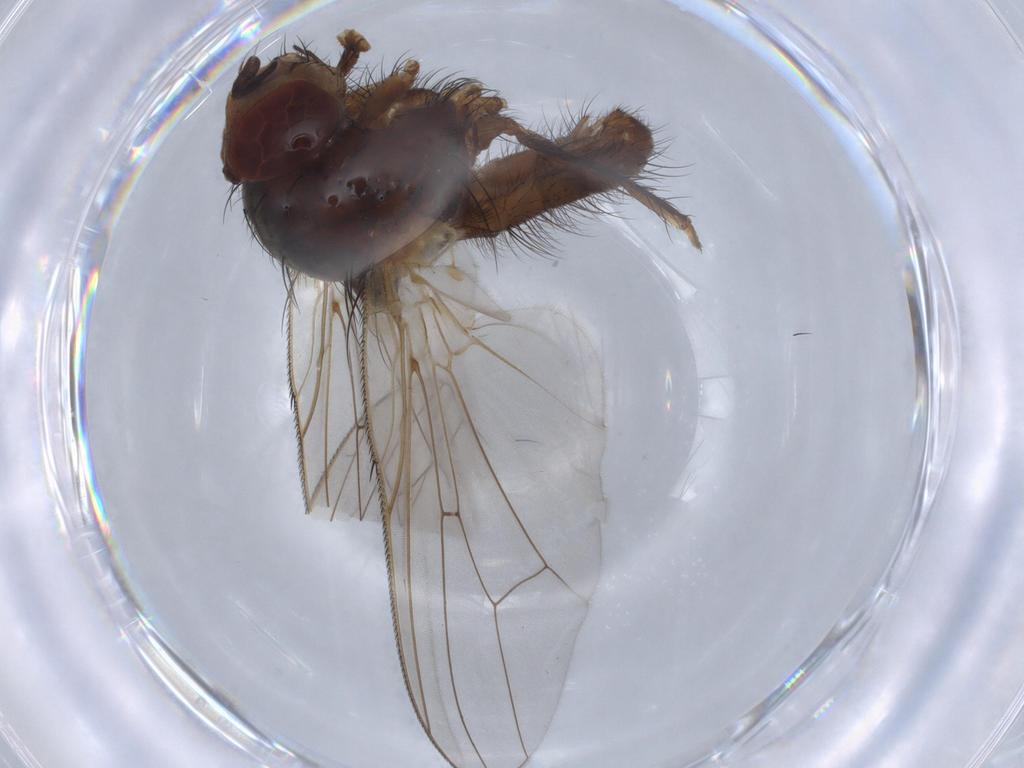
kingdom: Animalia
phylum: Arthropoda
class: Insecta
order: Diptera
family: Anthomyiidae
